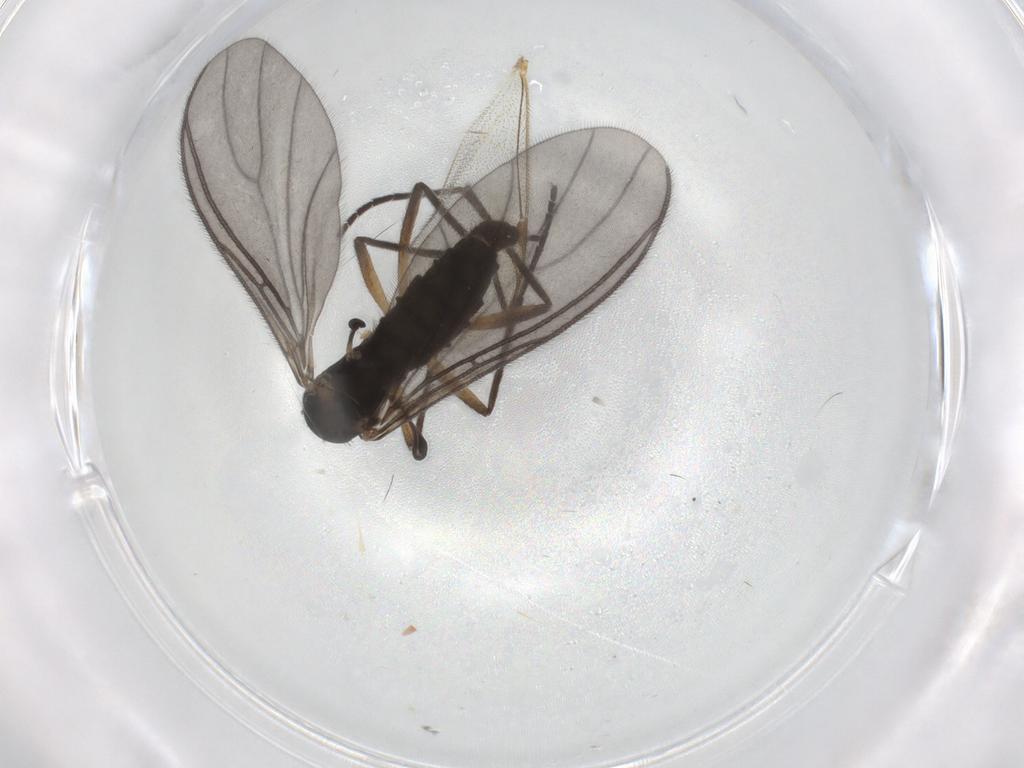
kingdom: Animalia
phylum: Arthropoda
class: Insecta
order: Diptera
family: Sciaridae
